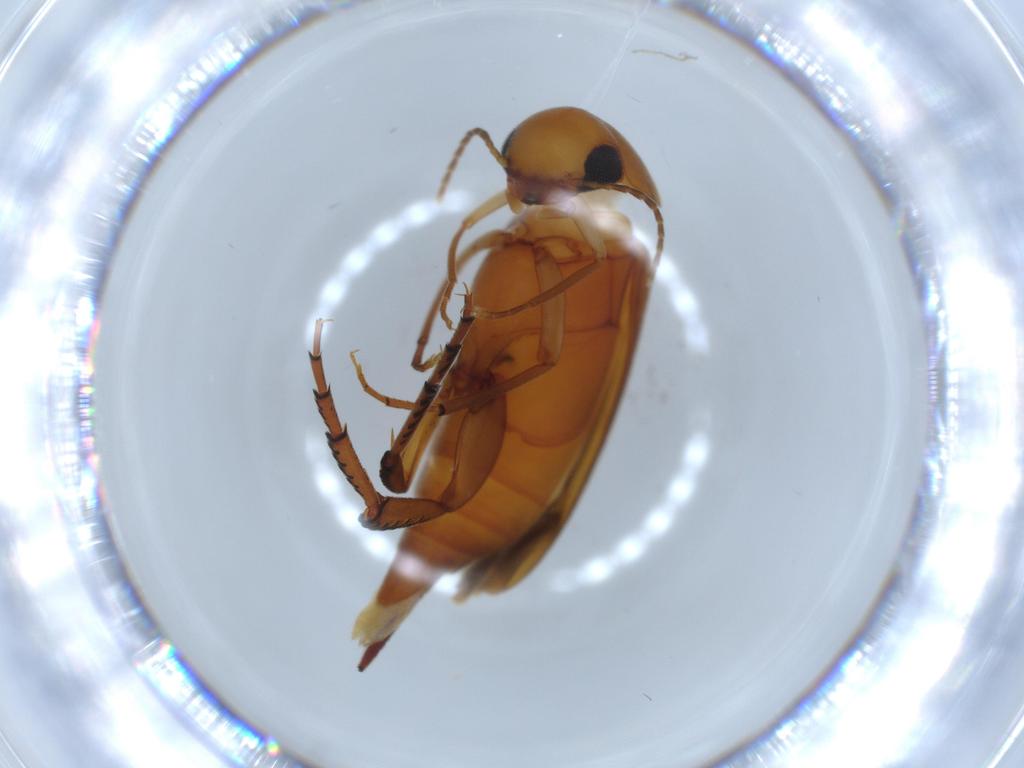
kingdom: Animalia
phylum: Arthropoda
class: Insecta
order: Coleoptera
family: Mordellidae
